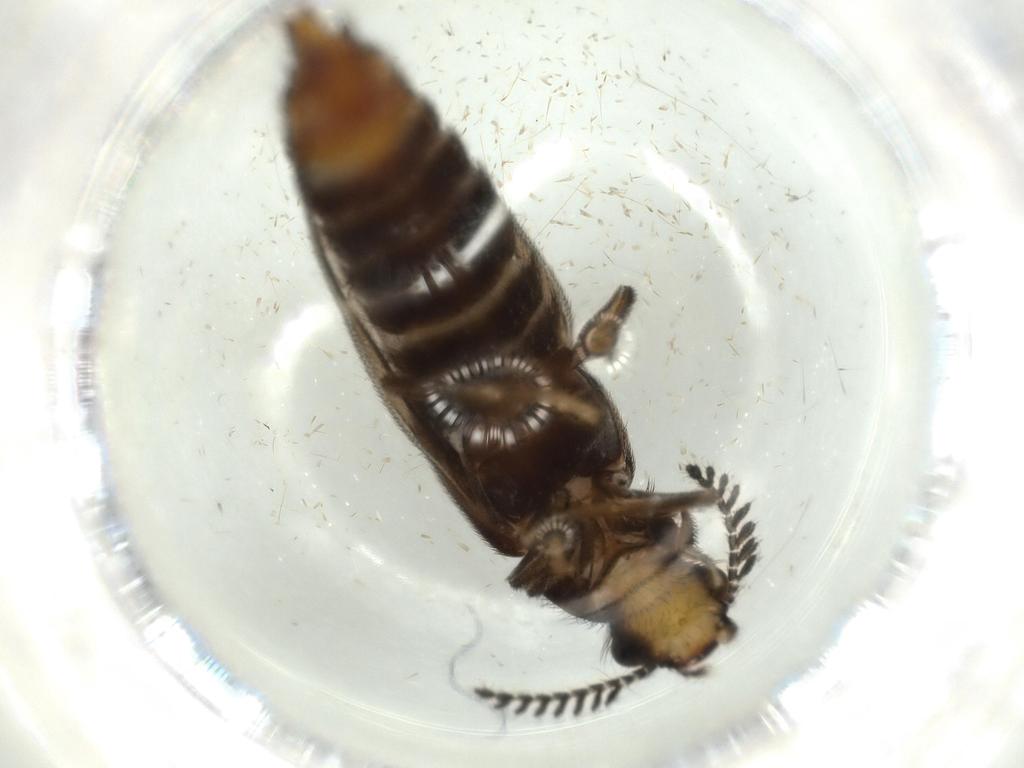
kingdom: Animalia
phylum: Arthropoda
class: Insecta
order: Coleoptera
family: Phengodidae
